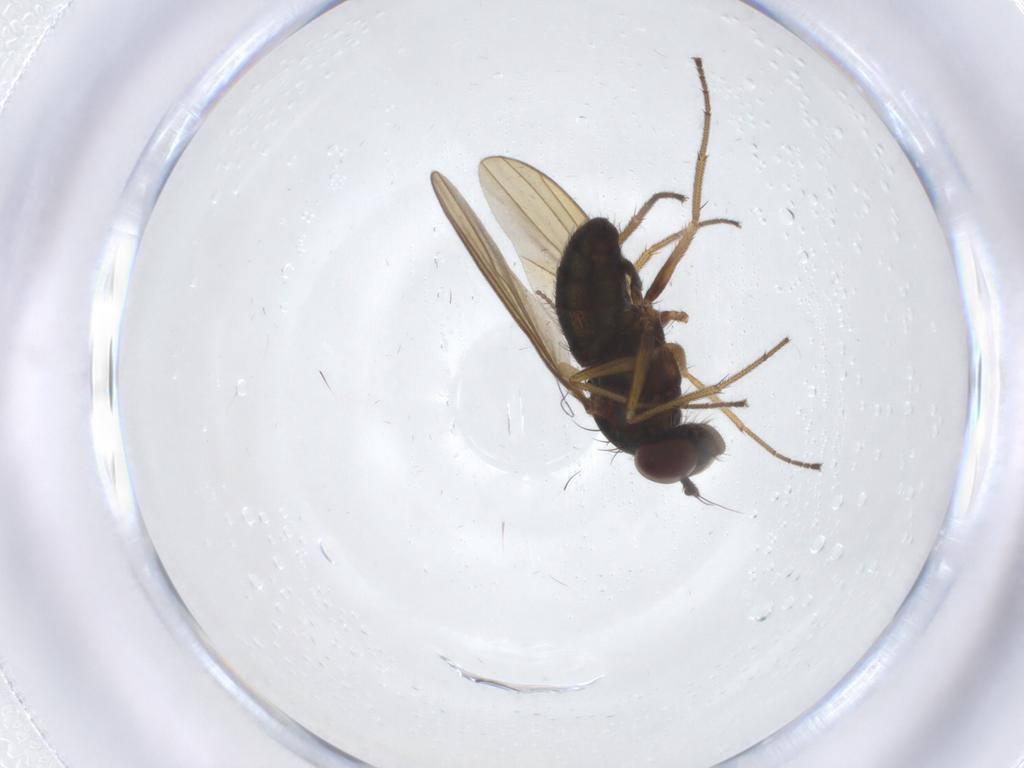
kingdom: Animalia
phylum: Arthropoda
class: Insecta
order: Diptera
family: Dolichopodidae
